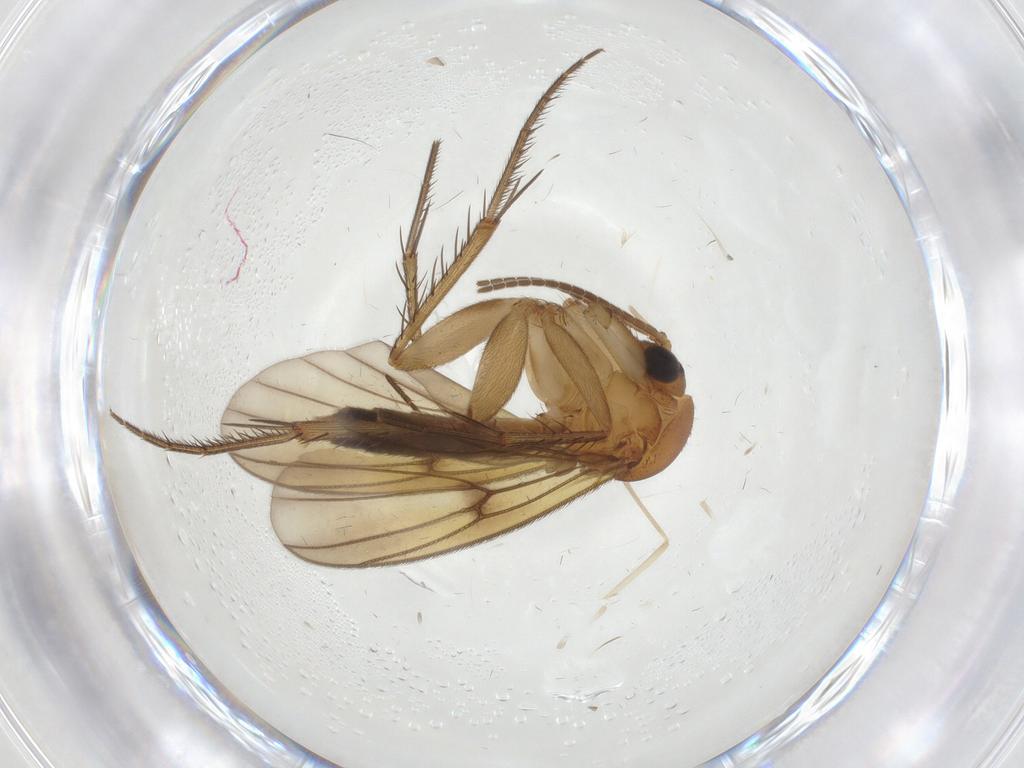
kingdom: Animalia
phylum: Arthropoda
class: Insecta
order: Diptera
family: Mycetophilidae
